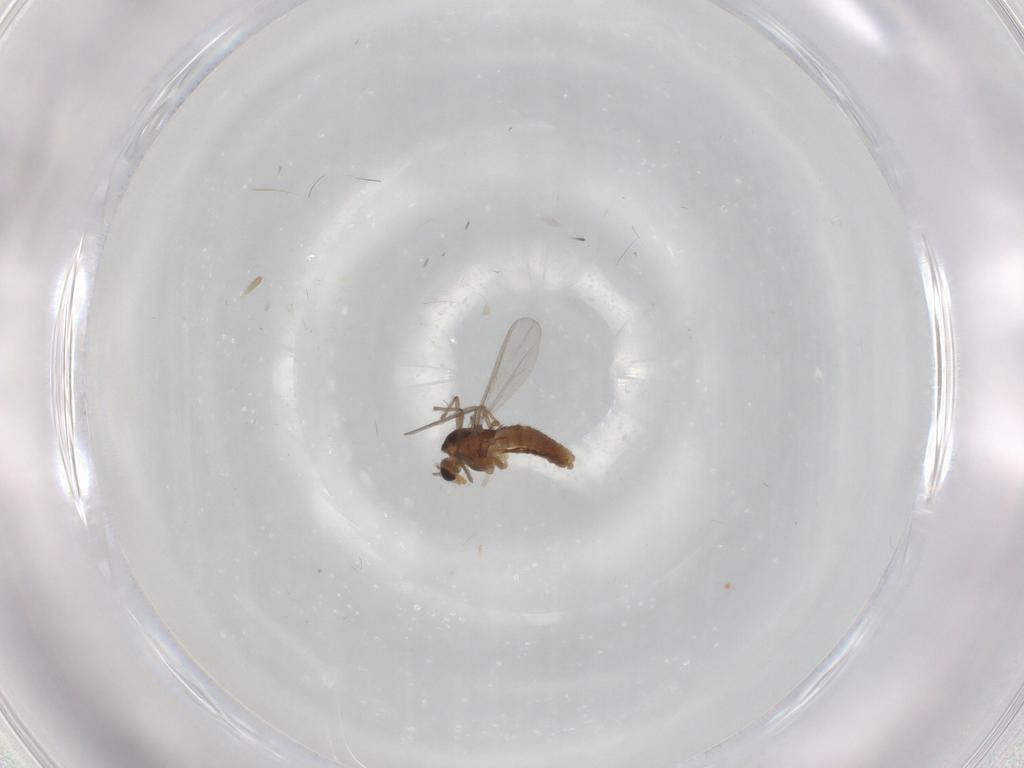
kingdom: Animalia
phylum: Arthropoda
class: Insecta
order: Diptera
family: Chironomidae
